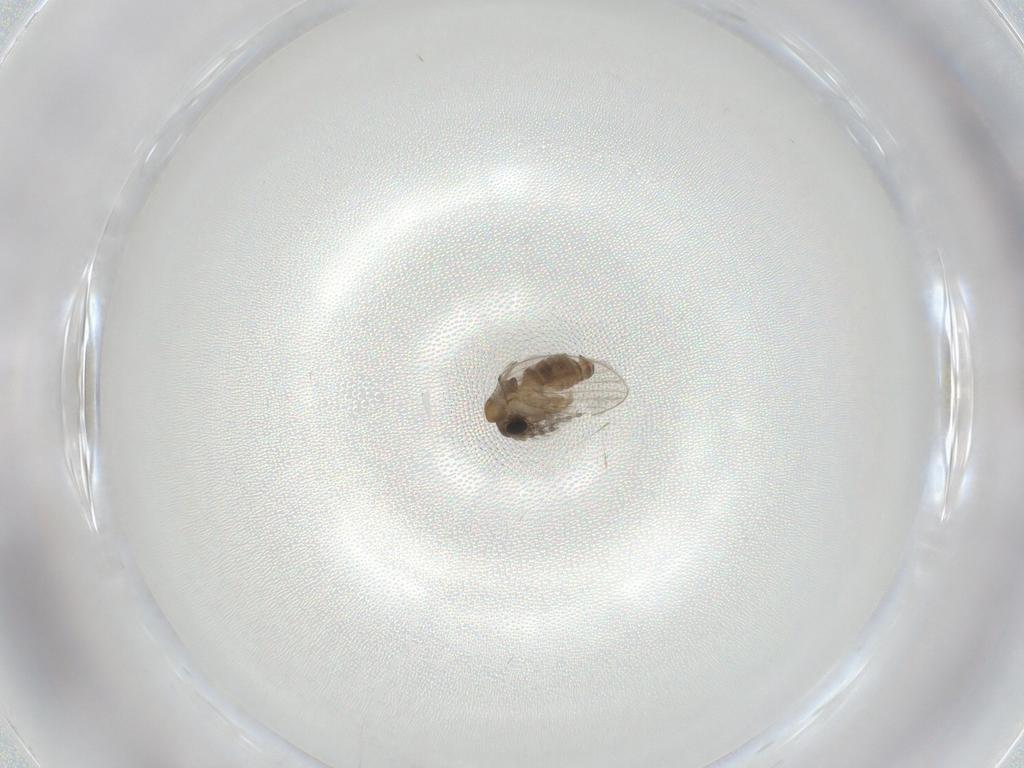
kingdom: Animalia
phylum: Arthropoda
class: Insecta
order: Diptera
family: Psychodidae
